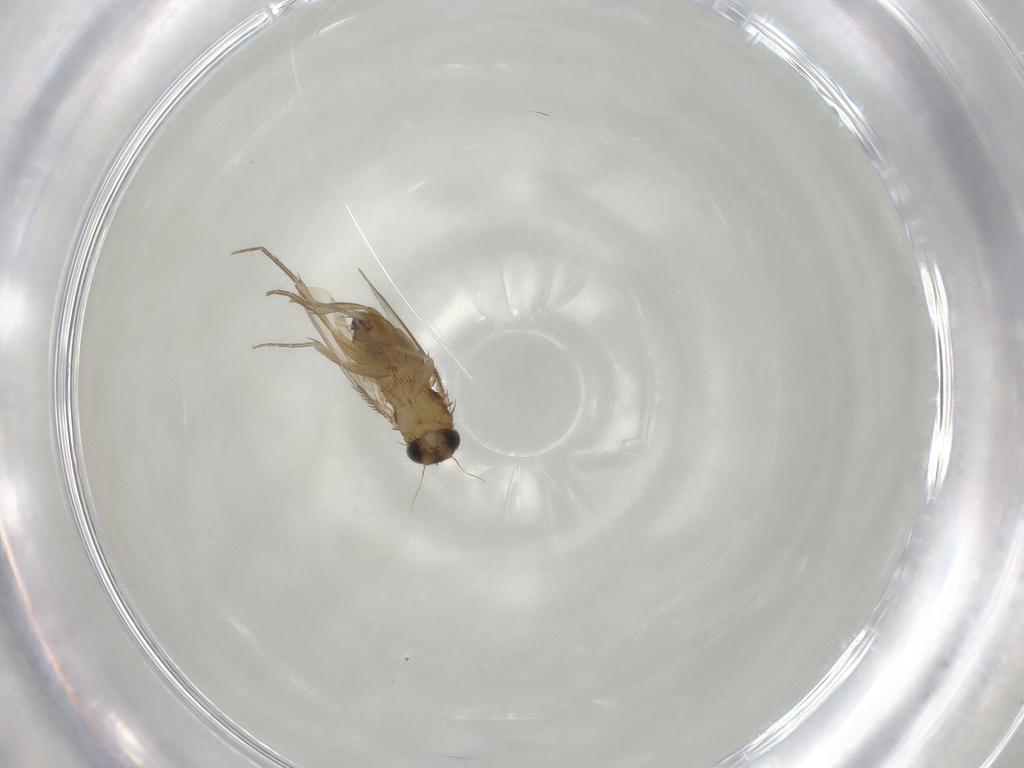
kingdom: Animalia
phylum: Arthropoda
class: Insecta
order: Diptera
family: Phoridae
